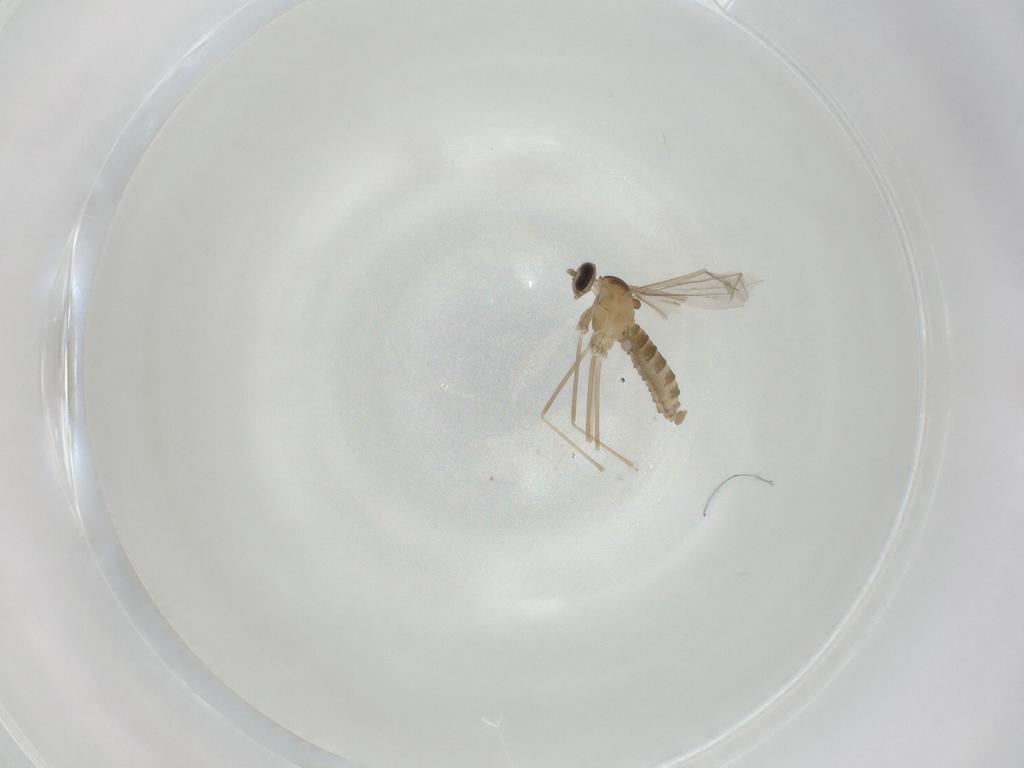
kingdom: Animalia
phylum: Arthropoda
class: Insecta
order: Diptera
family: Cecidomyiidae
